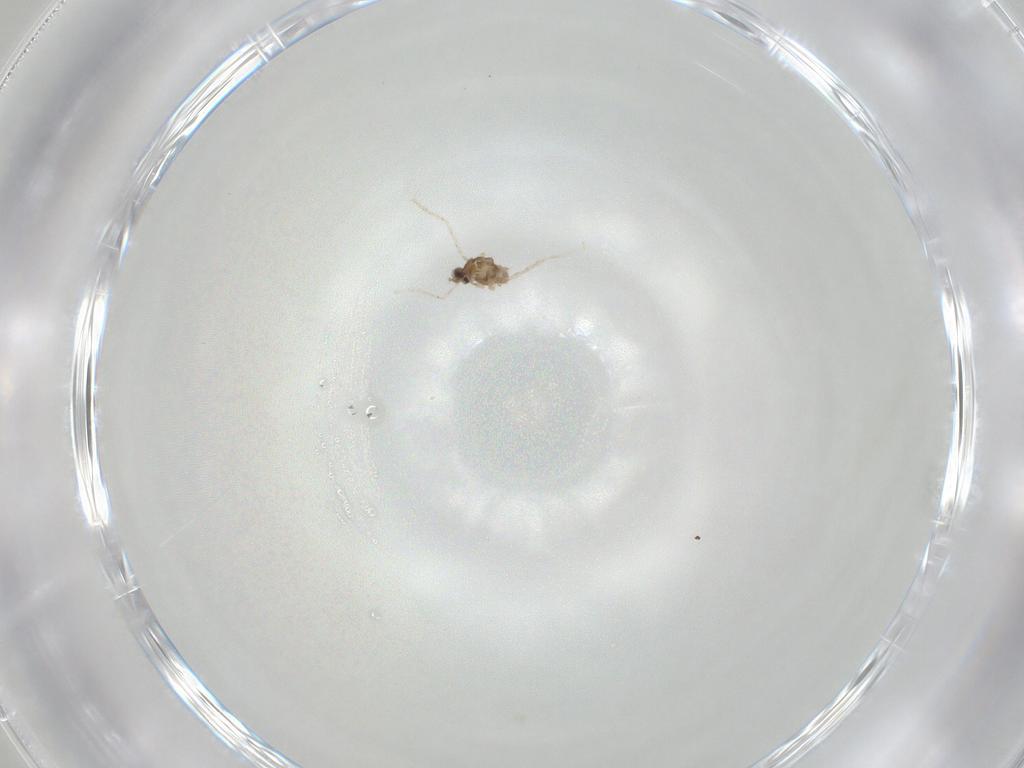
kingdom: Animalia
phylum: Arthropoda
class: Insecta
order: Diptera
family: Cecidomyiidae
